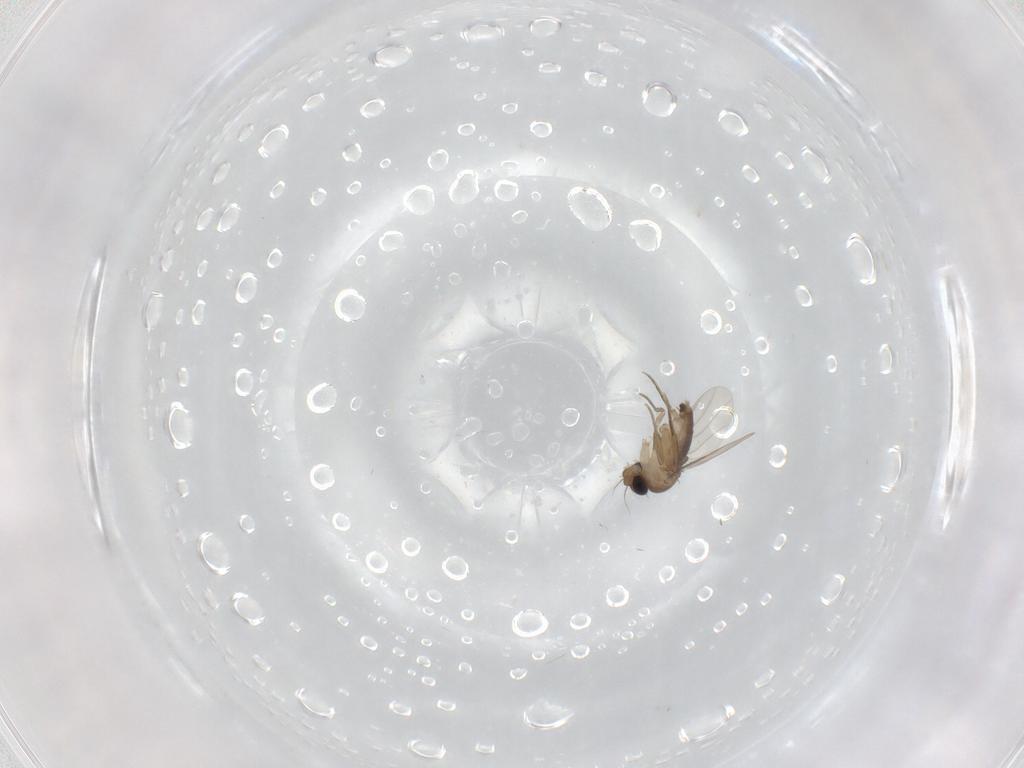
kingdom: Animalia
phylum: Arthropoda
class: Insecta
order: Diptera
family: Phoridae
